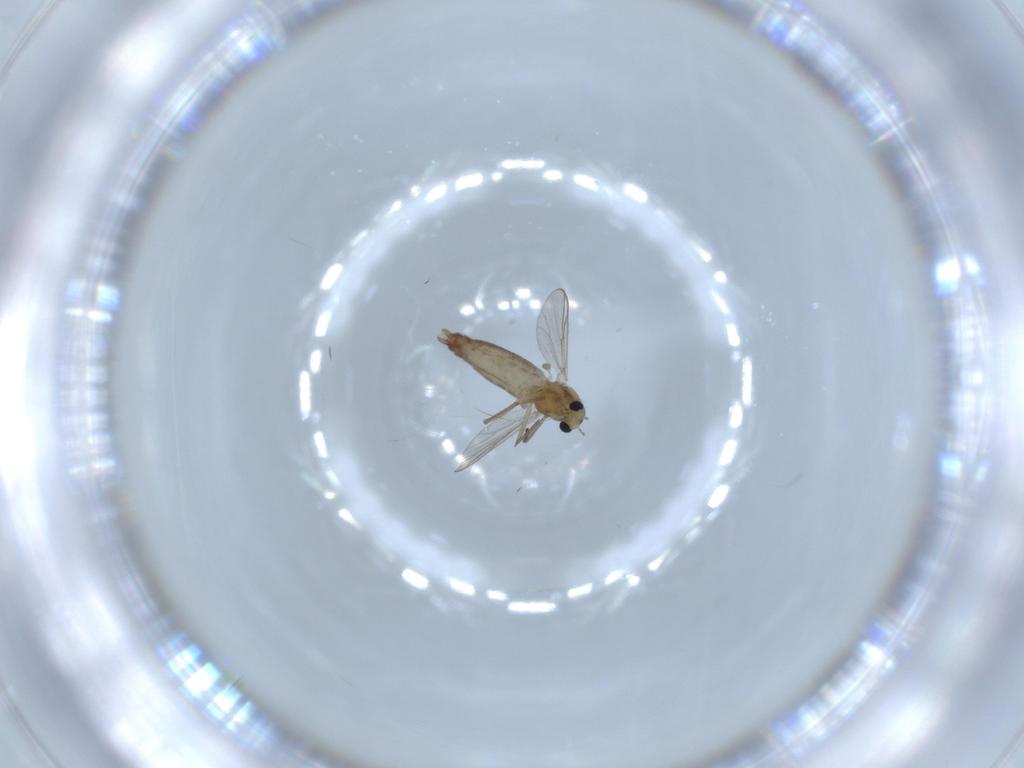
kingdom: Animalia
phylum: Arthropoda
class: Insecta
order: Diptera
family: Chironomidae
